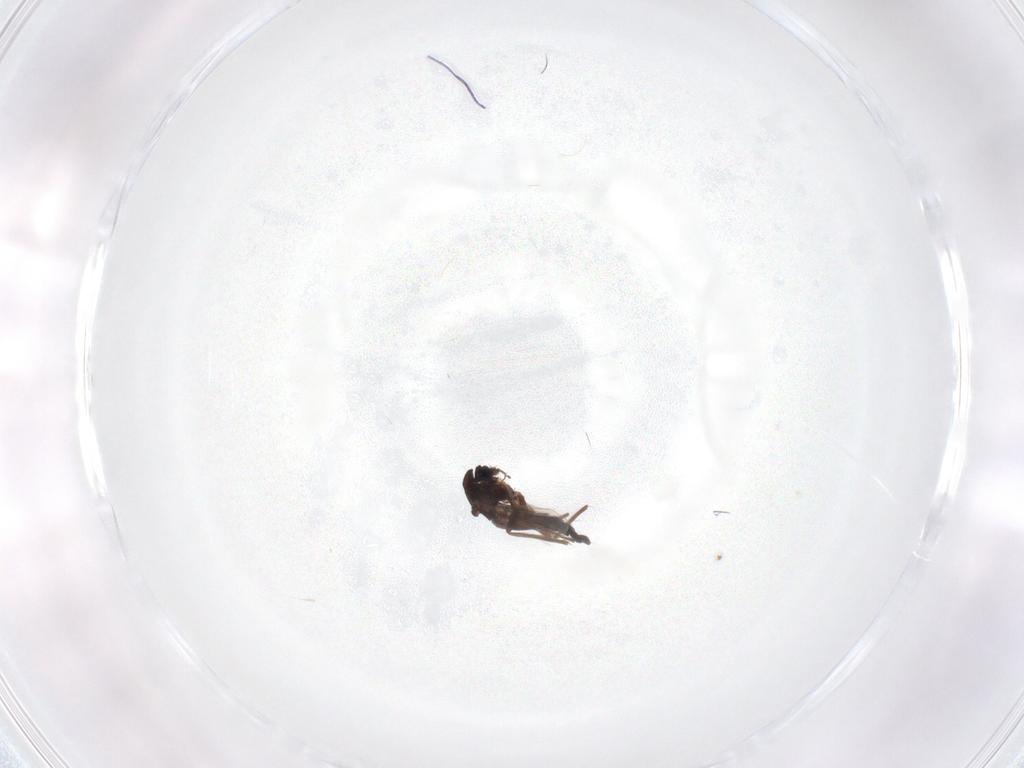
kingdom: Animalia
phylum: Arthropoda
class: Insecta
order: Diptera
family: Chironomidae
